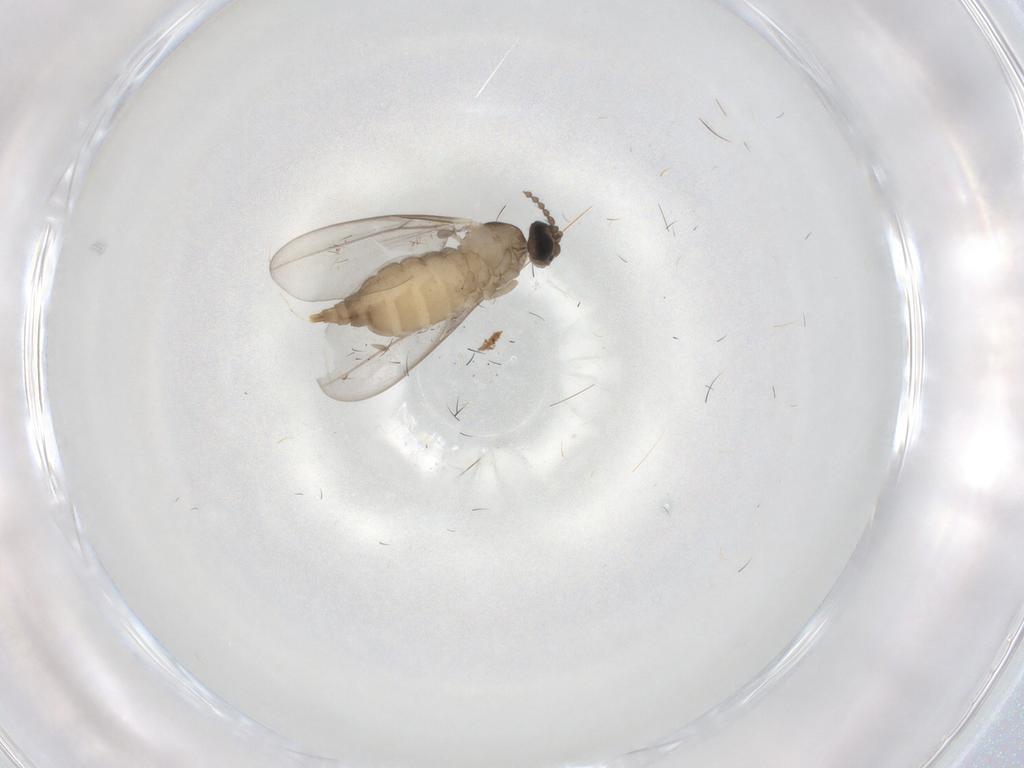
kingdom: Animalia
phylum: Arthropoda
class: Insecta
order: Diptera
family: Cecidomyiidae
